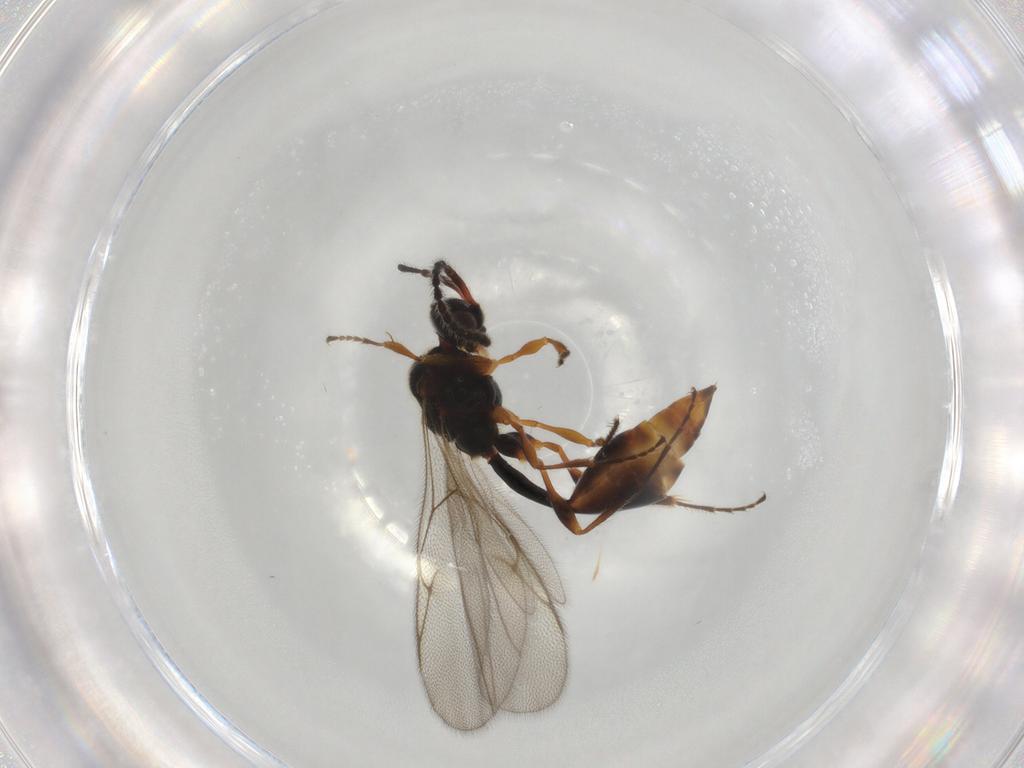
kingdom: Animalia
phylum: Arthropoda
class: Insecta
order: Hymenoptera
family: Diapriidae
